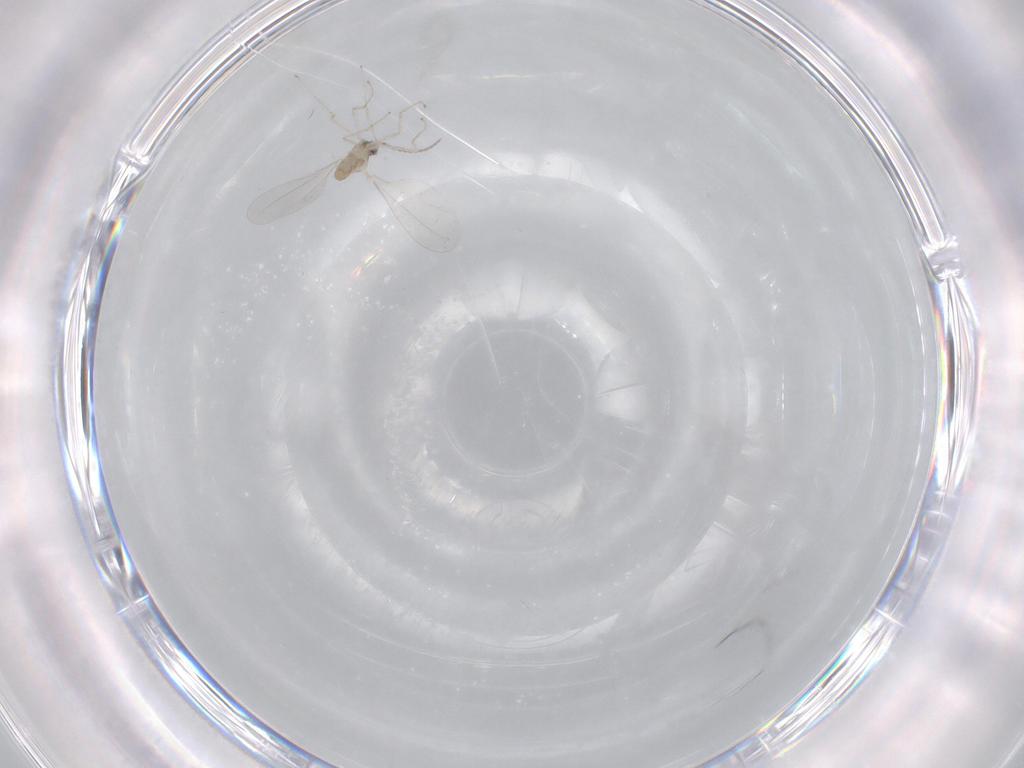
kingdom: Animalia
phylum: Arthropoda
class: Insecta
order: Diptera
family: Cecidomyiidae
